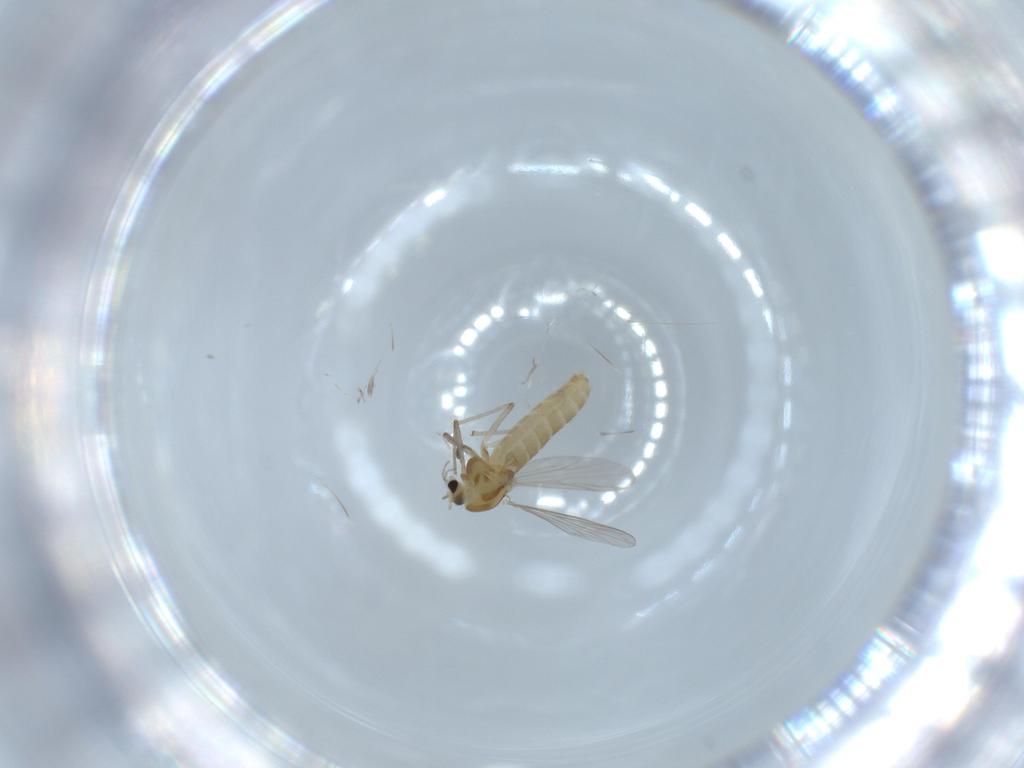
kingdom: Animalia
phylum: Arthropoda
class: Insecta
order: Diptera
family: Chironomidae
